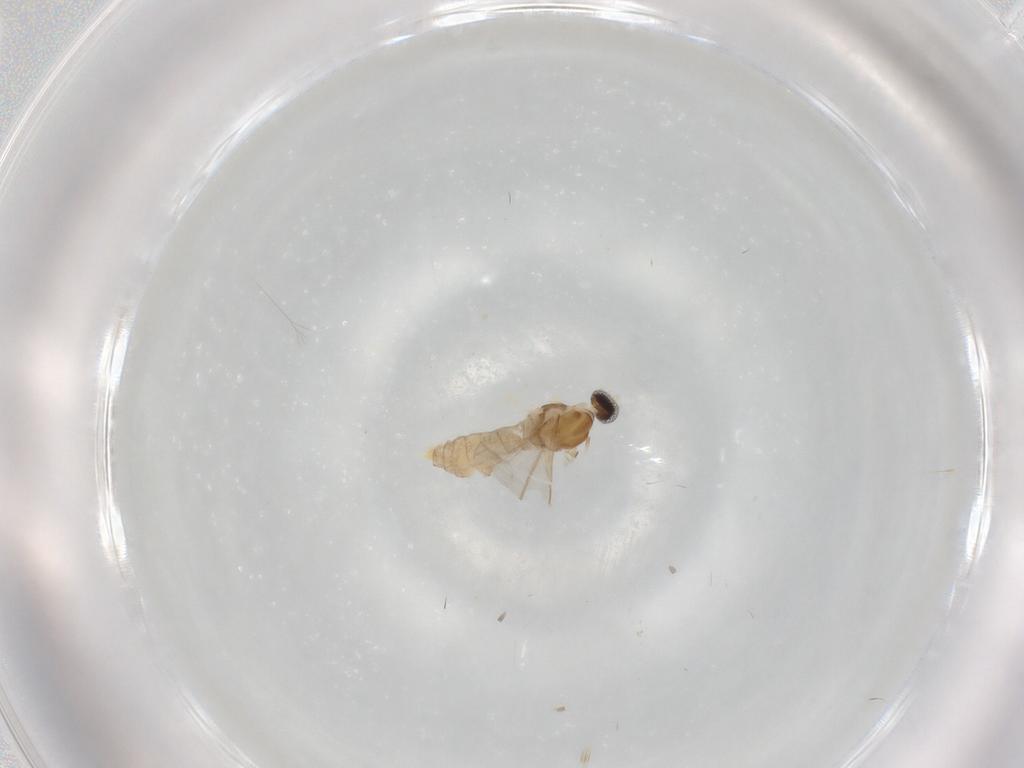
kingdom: Animalia
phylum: Arthropoda
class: Insecta
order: Diptera
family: Cecidomyiidae
